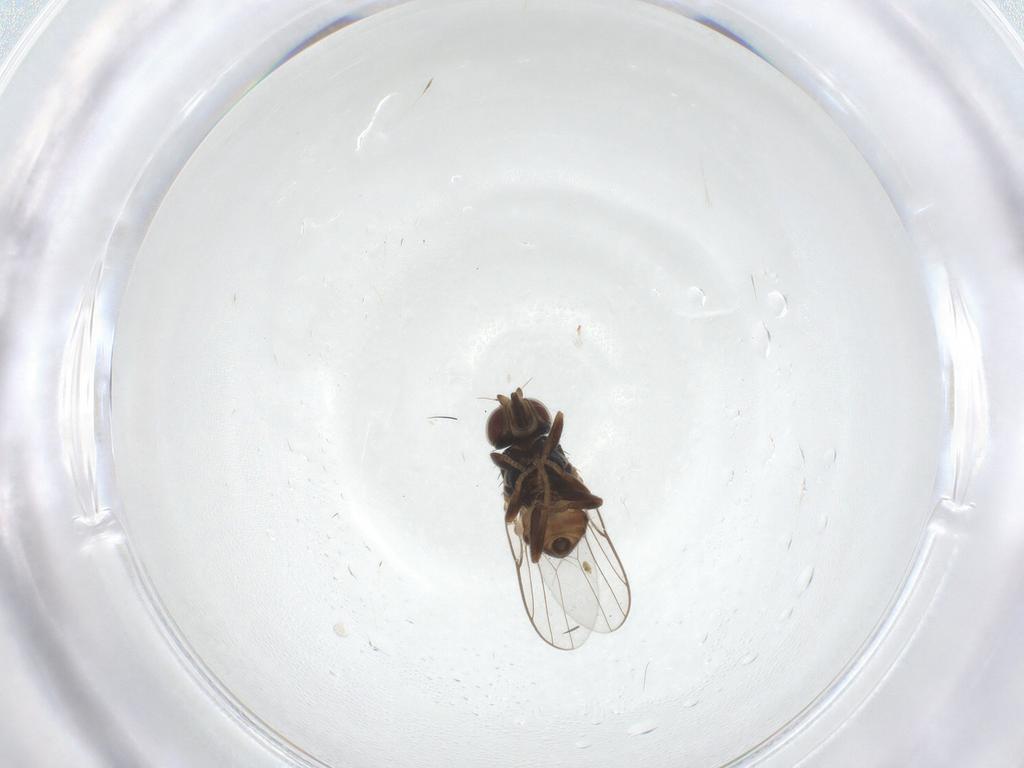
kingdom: Animalia
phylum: Arthropoda
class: Insecta
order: Diptera
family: Chloropidae
